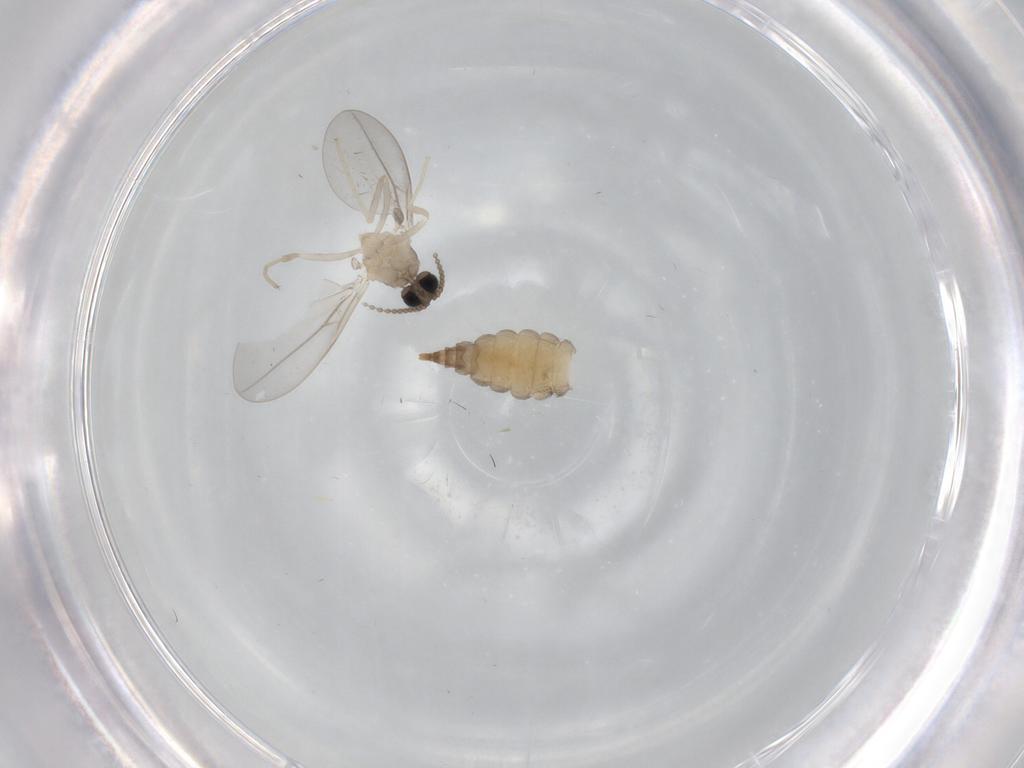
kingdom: Animalia
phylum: Arthropoda
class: Insecta
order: Diptera
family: Cecidomyiidae
